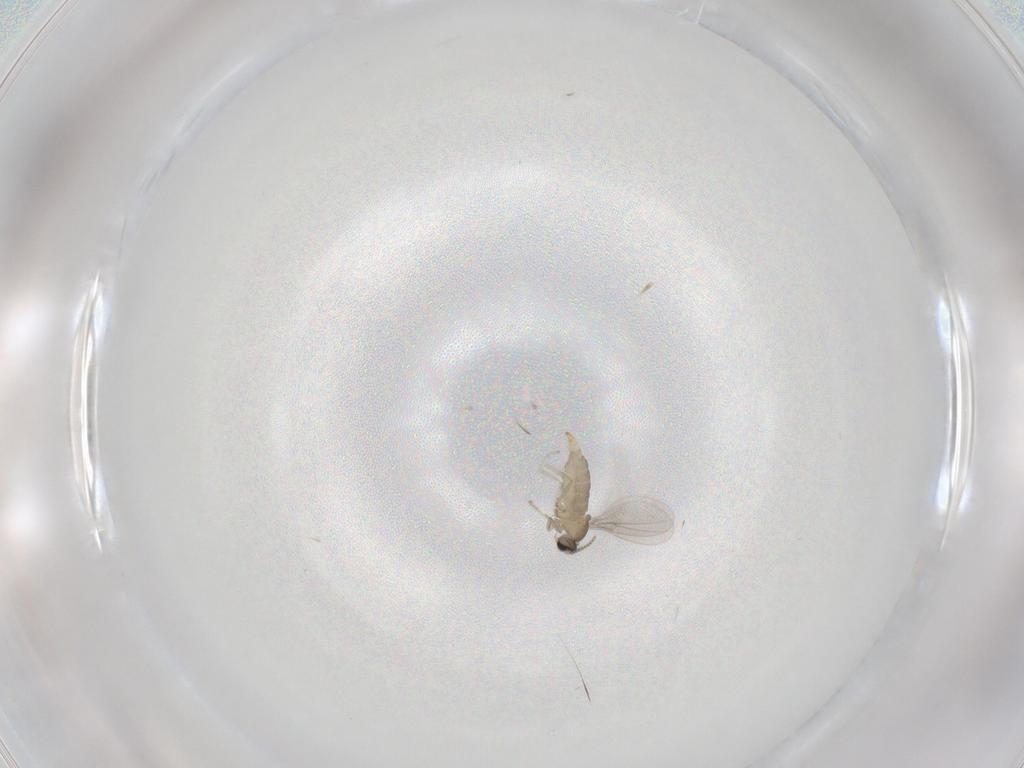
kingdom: Animalia
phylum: Arthropoda
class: Insecta
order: Diptera
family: Cecidomyiidae
